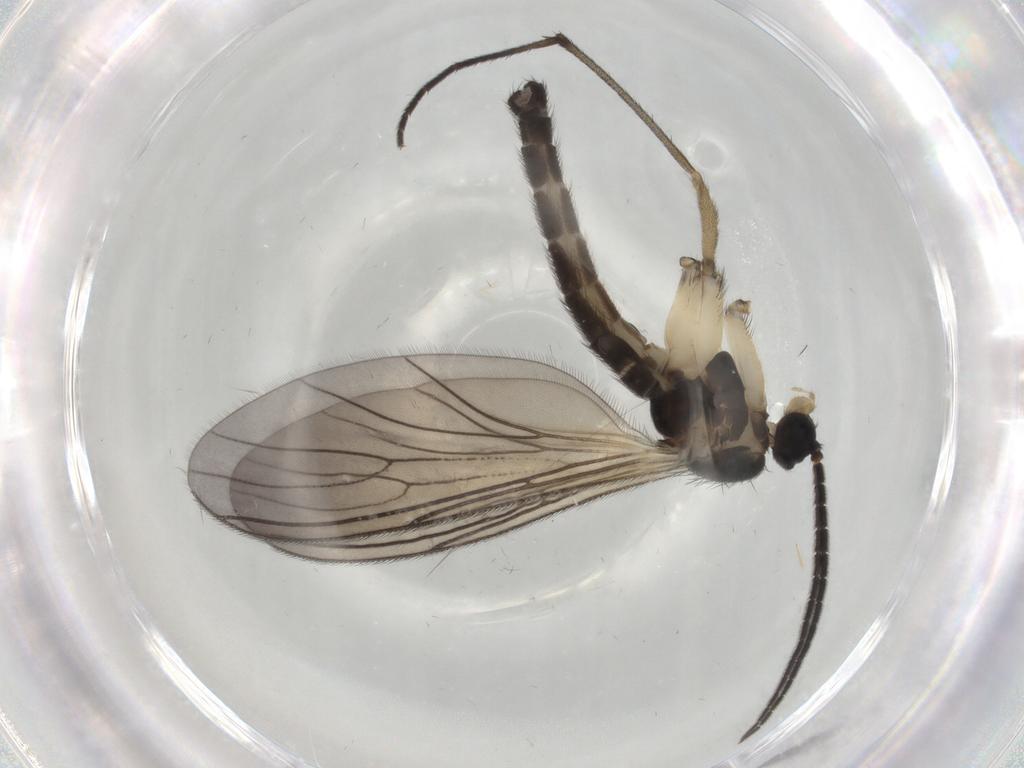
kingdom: Animalia
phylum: Arthropoda
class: Insecta
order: Diptera
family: Sciaridae
